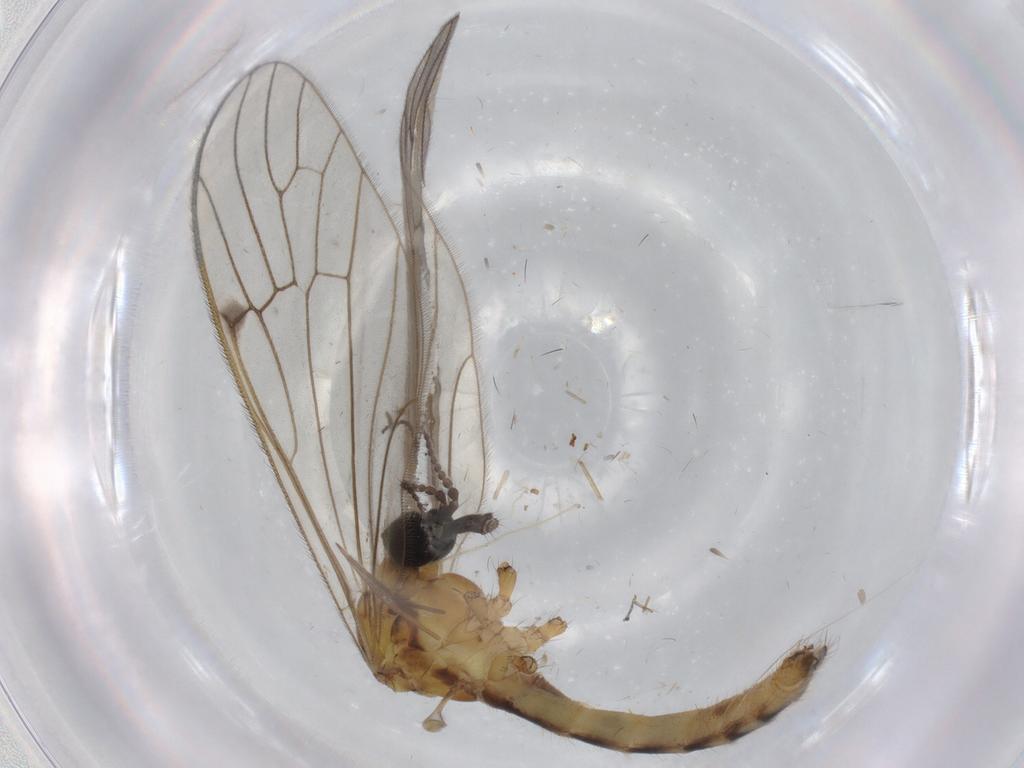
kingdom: Animalia
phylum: Arthropoda
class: Insecta
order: Diptera
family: Limoniidae
